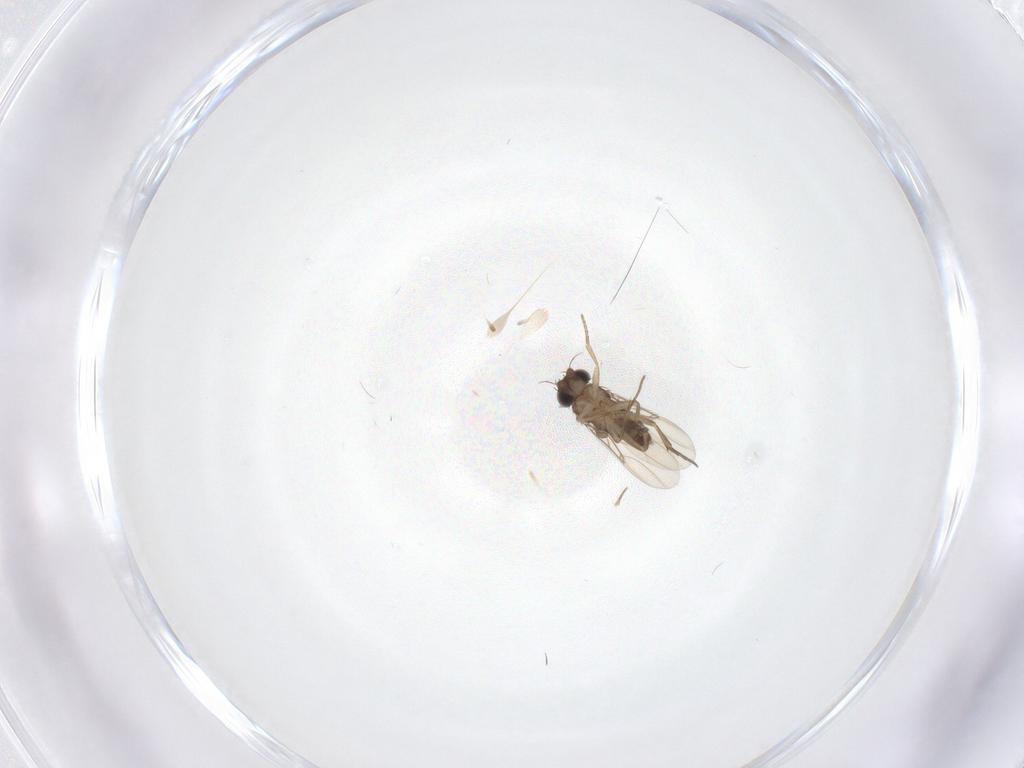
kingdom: Animalia
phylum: Arthropoda
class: Insecta
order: Diptera
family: Phoridae
